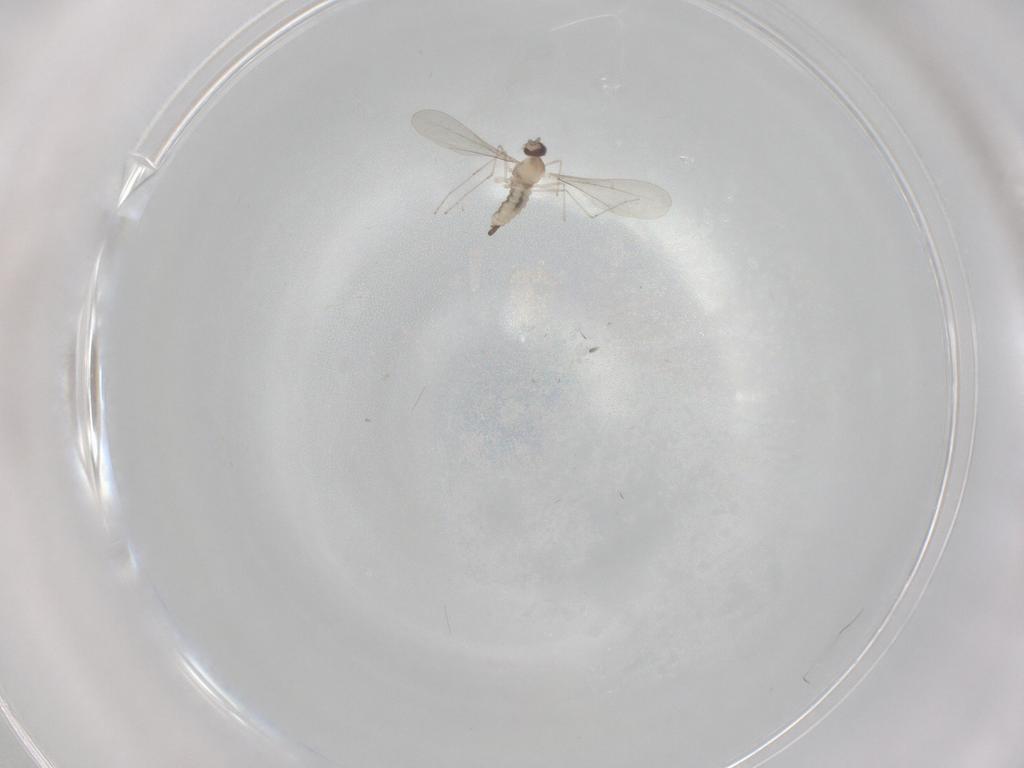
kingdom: Animalia
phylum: Arthropoda
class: Insecta
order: Diptera
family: Cecidomyiidae
